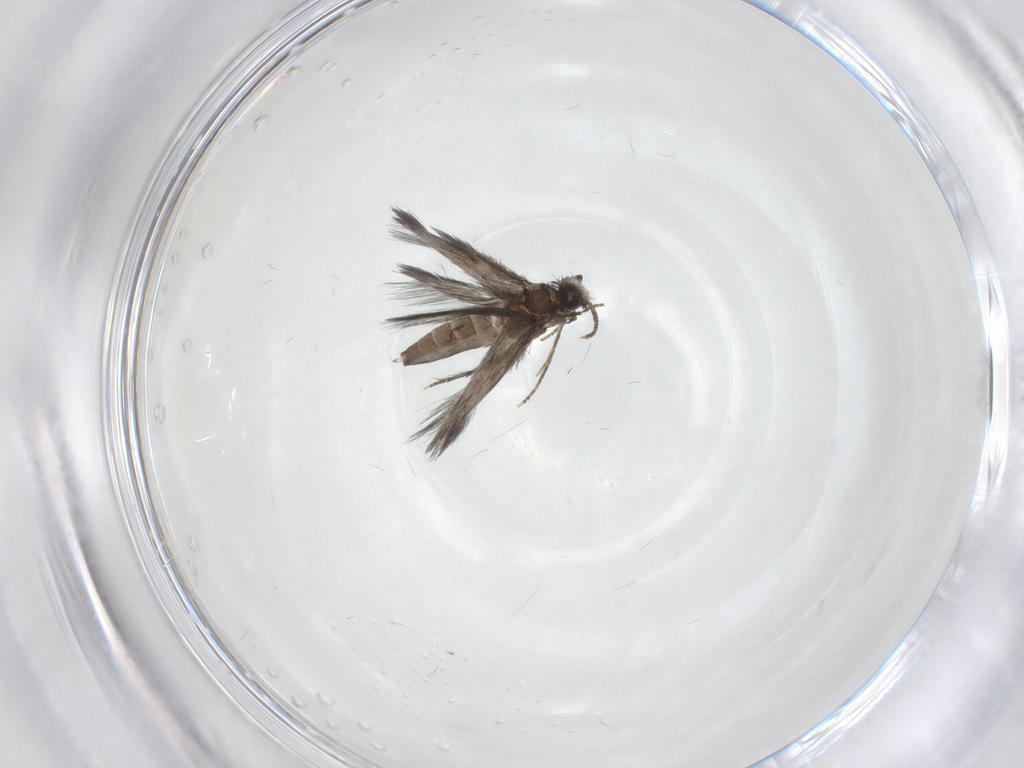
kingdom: Animalia
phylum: Arthropoda
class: Insecta
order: Trichoptera
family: Hydroptilidae
